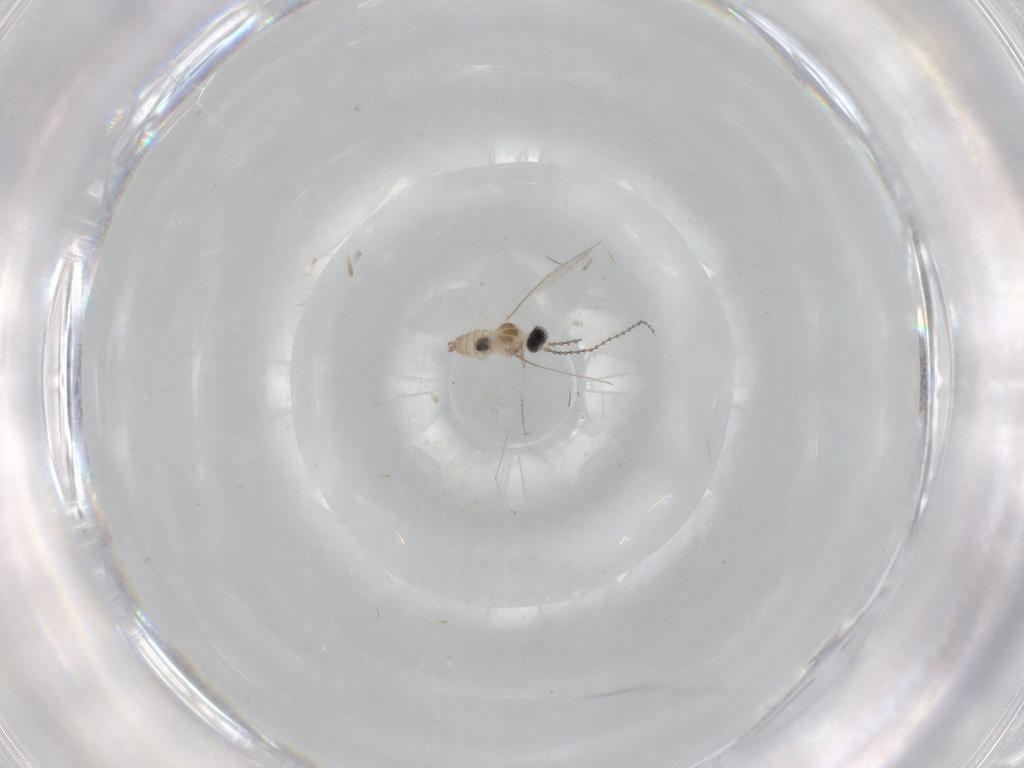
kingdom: Animalia
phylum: Arthropoda
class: Insecta
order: Diptera
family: Cecidomyiidae
